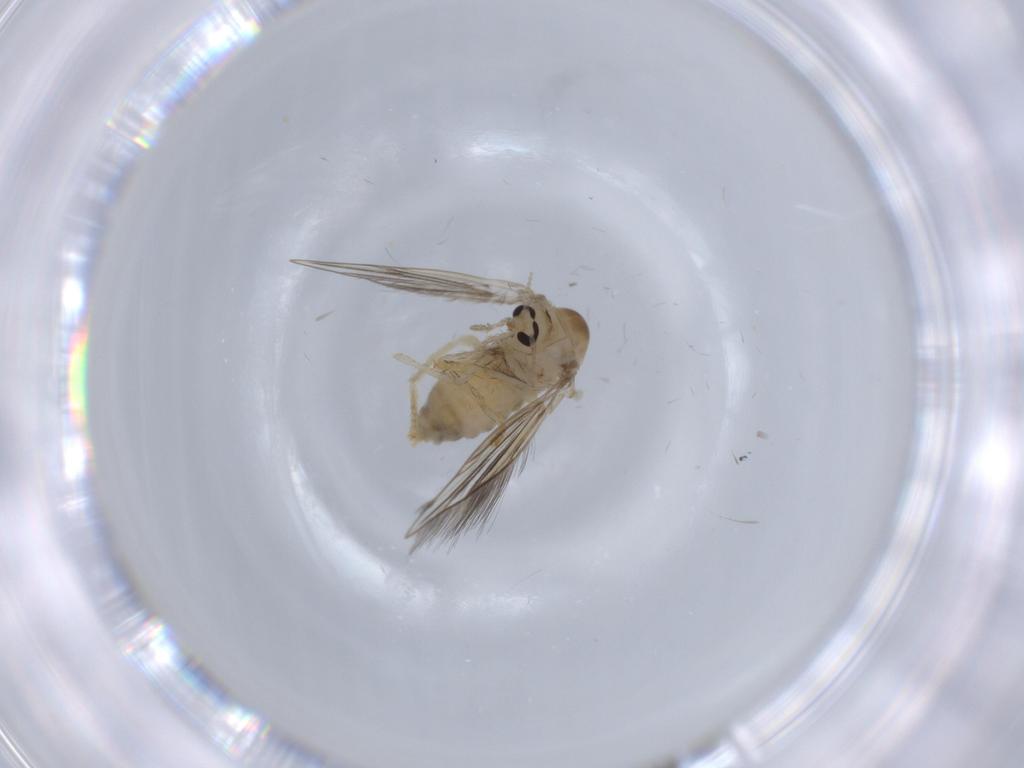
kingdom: Animalia
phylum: Arthropoda
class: Insecta
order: Diptera
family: Psychodidae
